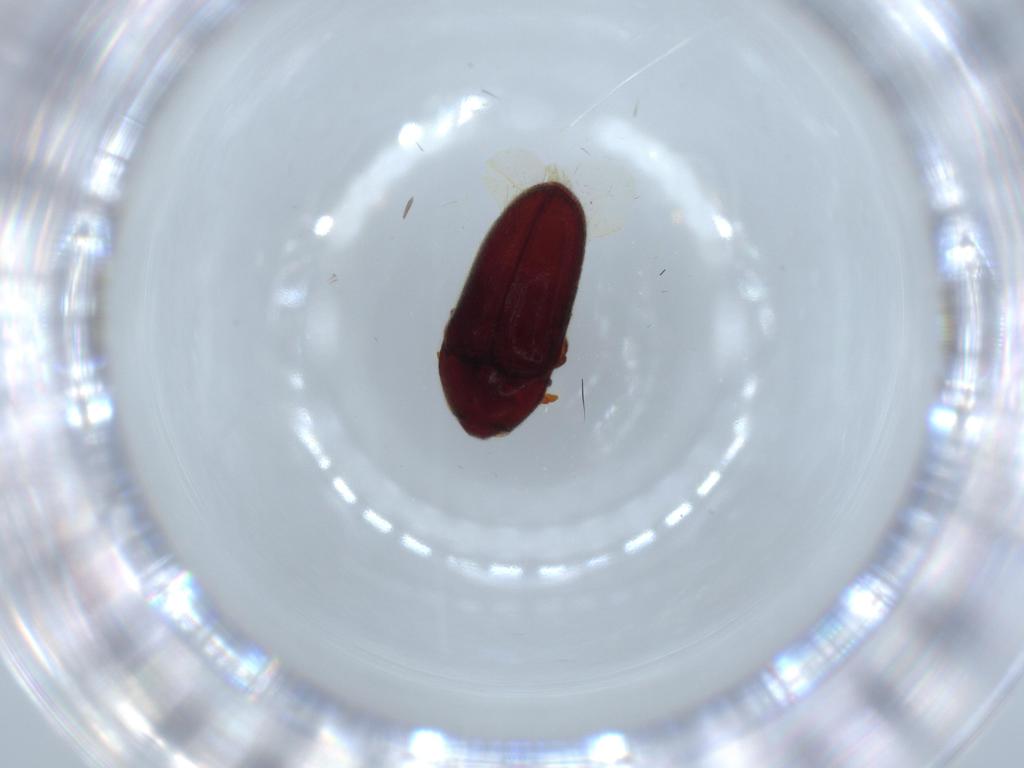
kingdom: Animalia
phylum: Arthropoda
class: Insecta
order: Coleoptera
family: Throscidae
